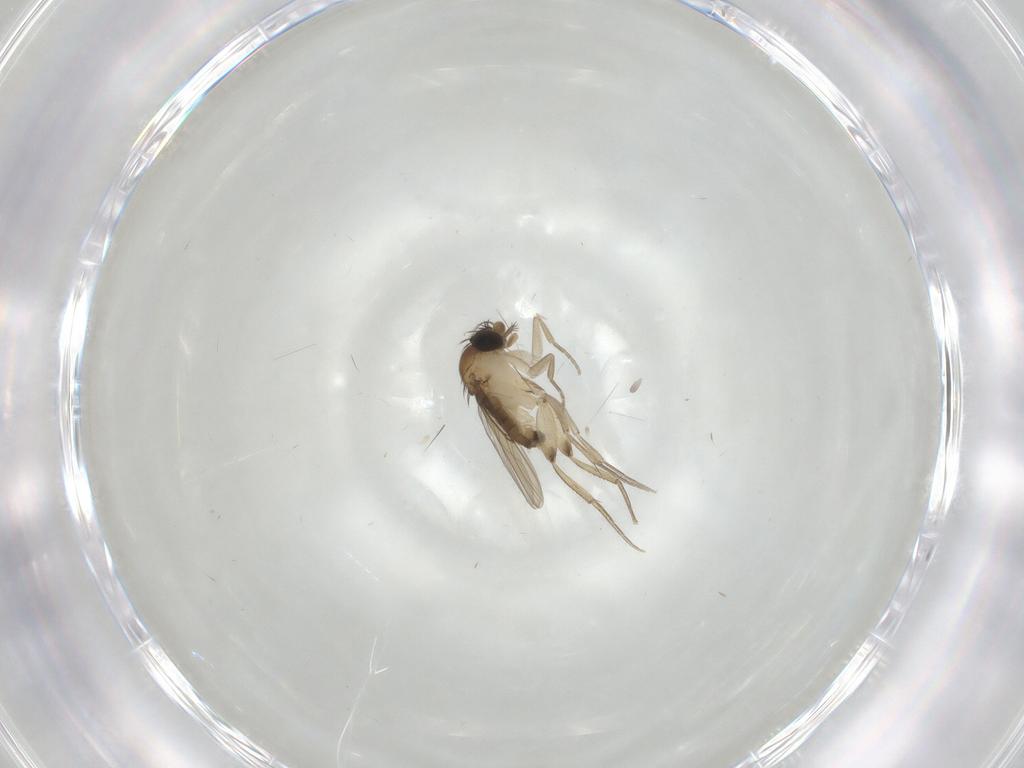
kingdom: Animalia
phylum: Arthropoda
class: Insecta
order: Diptera
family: Phoridae
